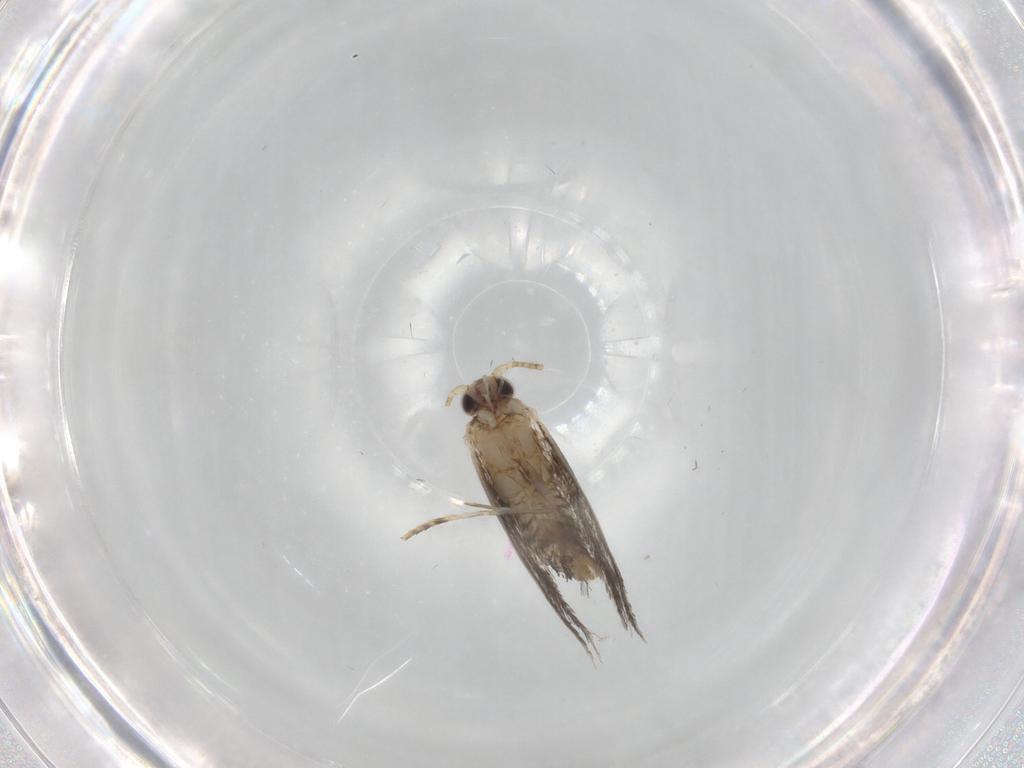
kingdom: Animalia
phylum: Arthropoda
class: Insecta
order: Lepidoptera
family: Tineidae
